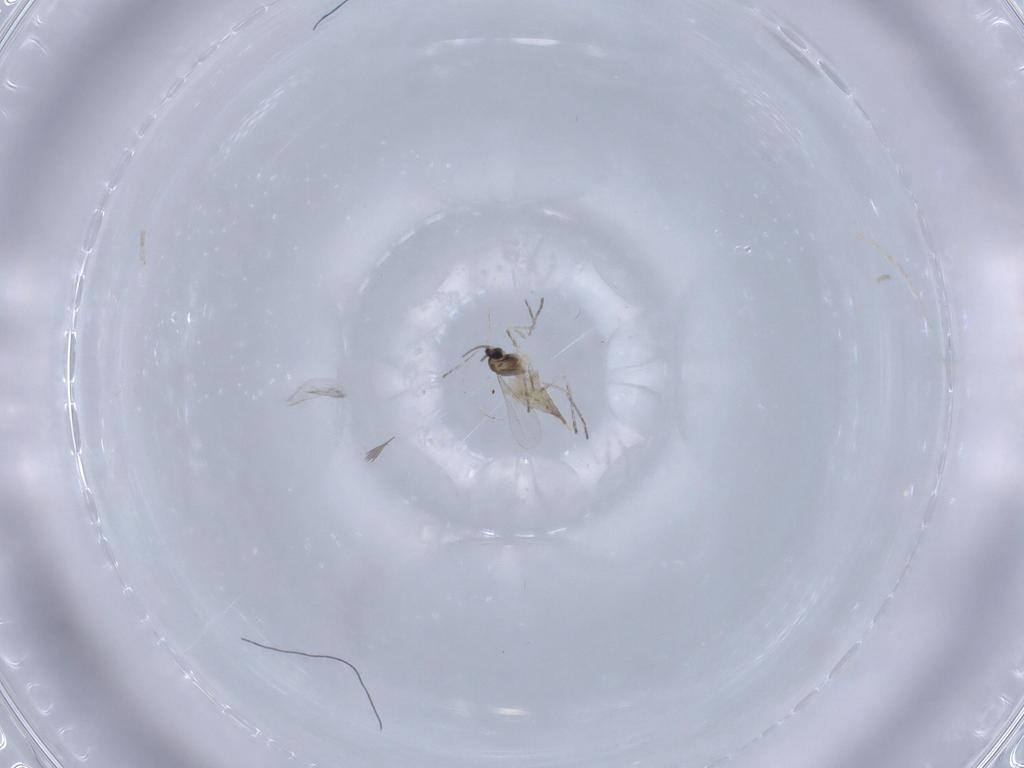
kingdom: Animalia
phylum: Arthropoda
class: Insecta
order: Diptera
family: Cecidomyiidae
